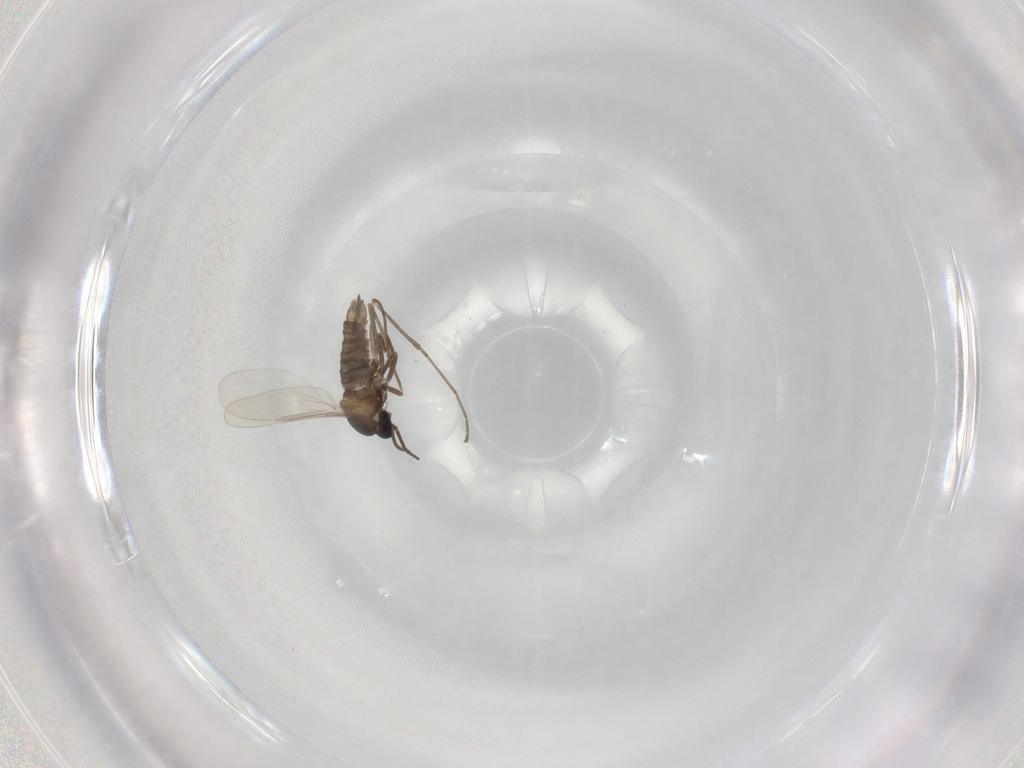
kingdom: Animalia
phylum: Arthropoda
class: Insecta
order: Diptera
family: Cecidomyiidae
